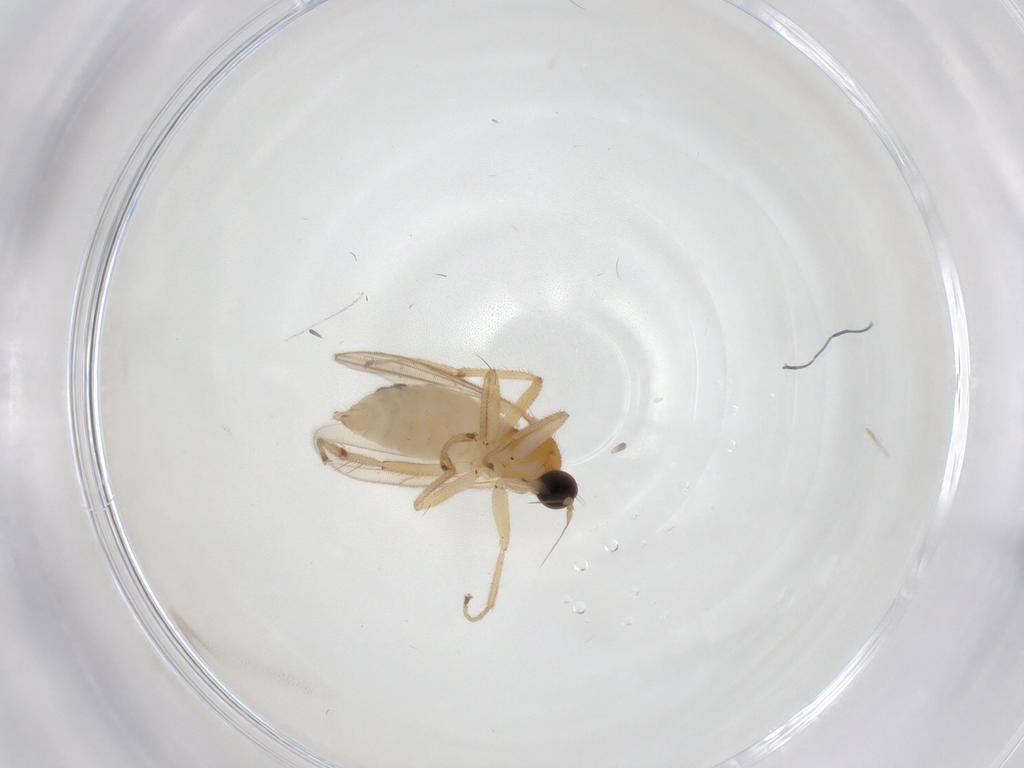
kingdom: Animalia
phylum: Arthropoda
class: Insecta
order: Diptera
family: Hybotidae
